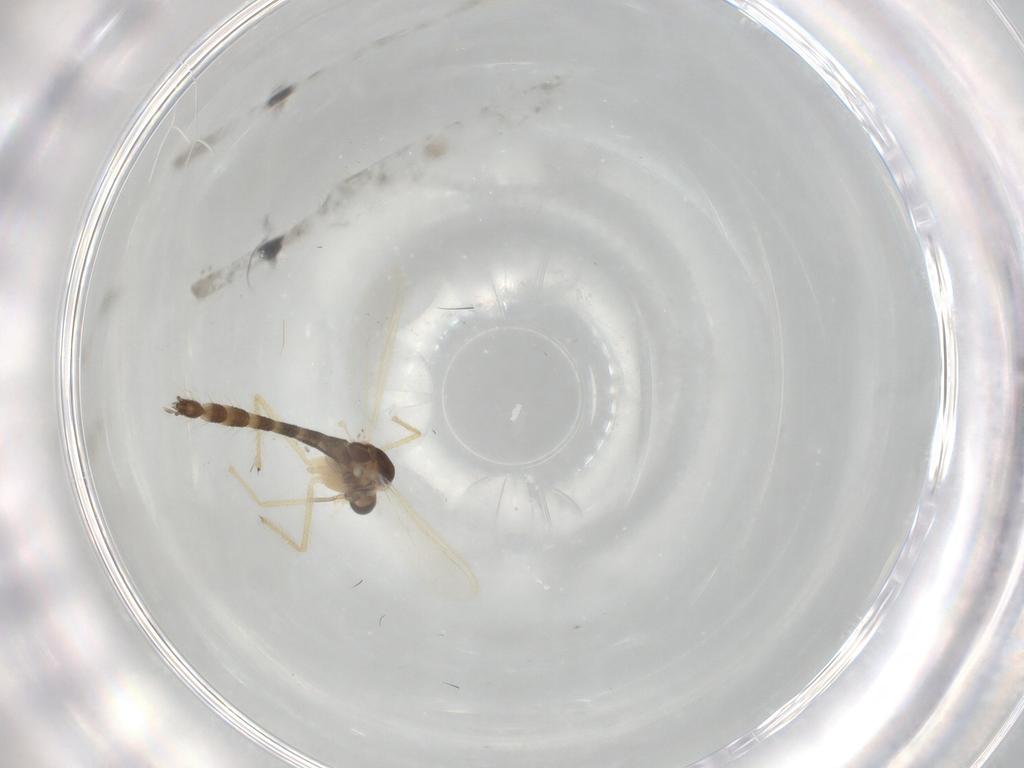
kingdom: Animalia
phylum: Arthropoda
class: Insecta
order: Diptera
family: Chironomidae
